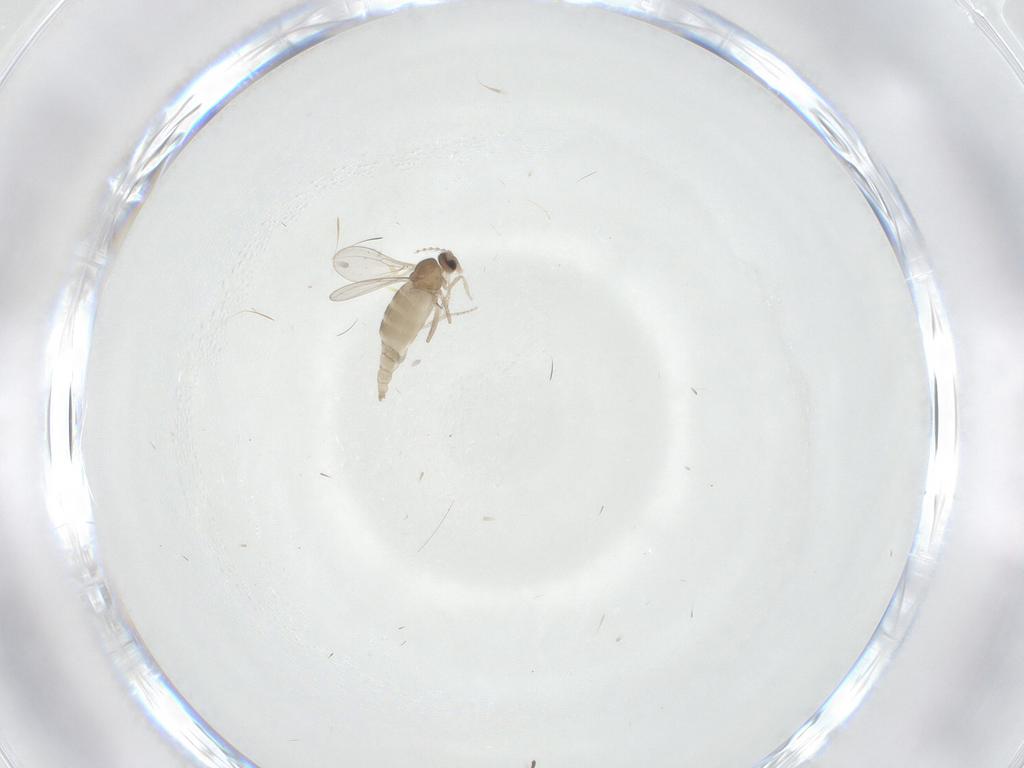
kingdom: Animalia
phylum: Arthropoda
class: Insecta
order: Diptera
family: Cecidomyiidae
